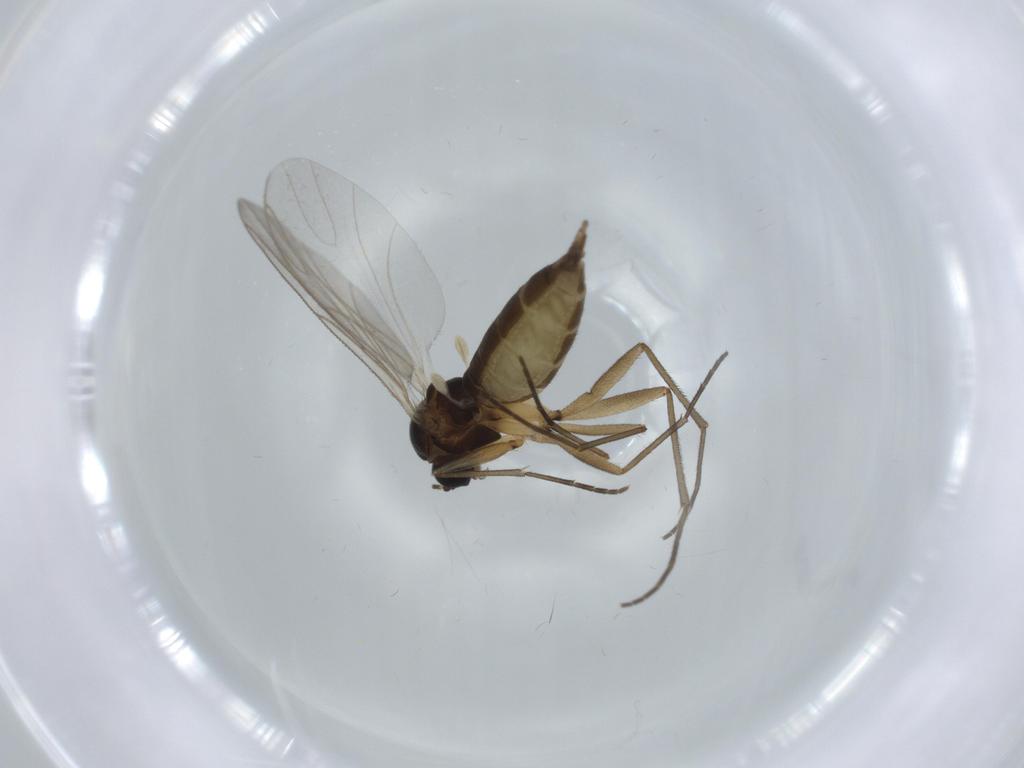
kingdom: Animalia
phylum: Arthropoda
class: Insecta
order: Diptera
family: Sciaridae
